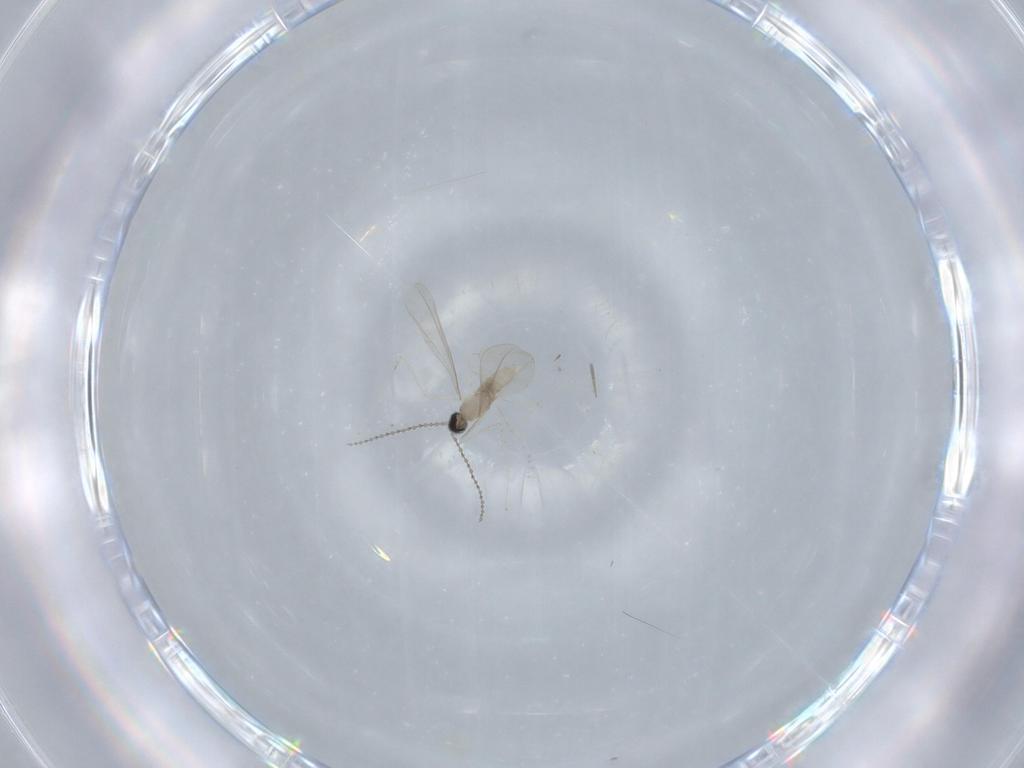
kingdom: Animalia
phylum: Arthropoda
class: Insecta
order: Diptera
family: Cecidomyiidae
